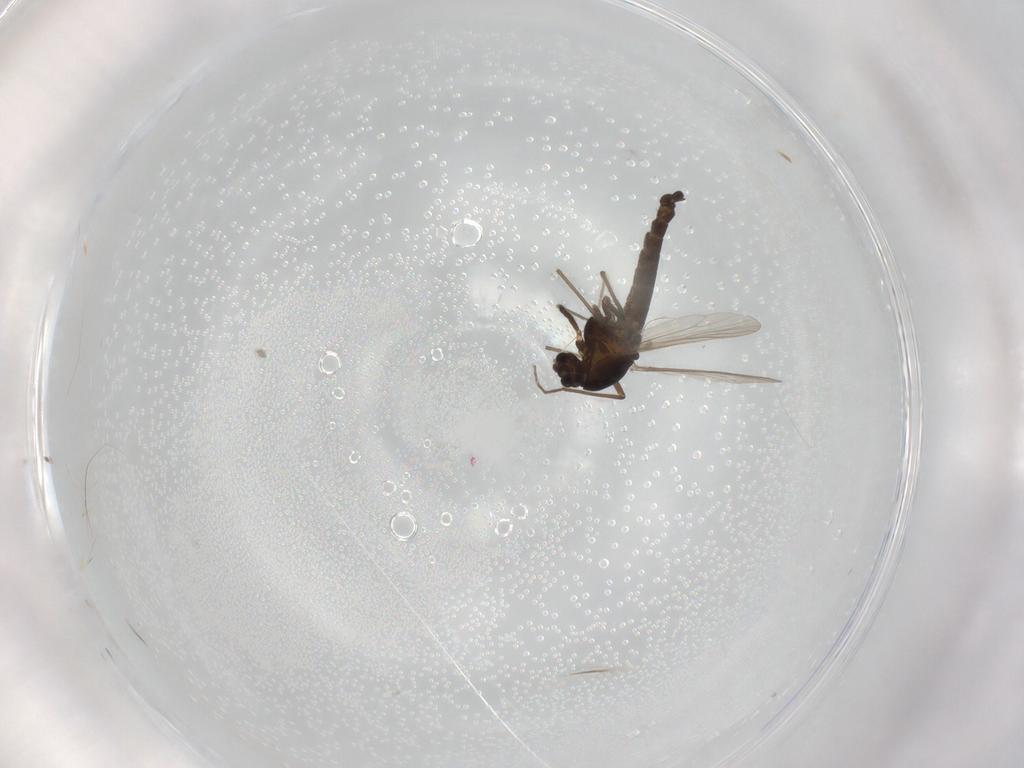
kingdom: Animalia
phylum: Arthropoda
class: Insecta
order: Diptera
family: Chironomidae
